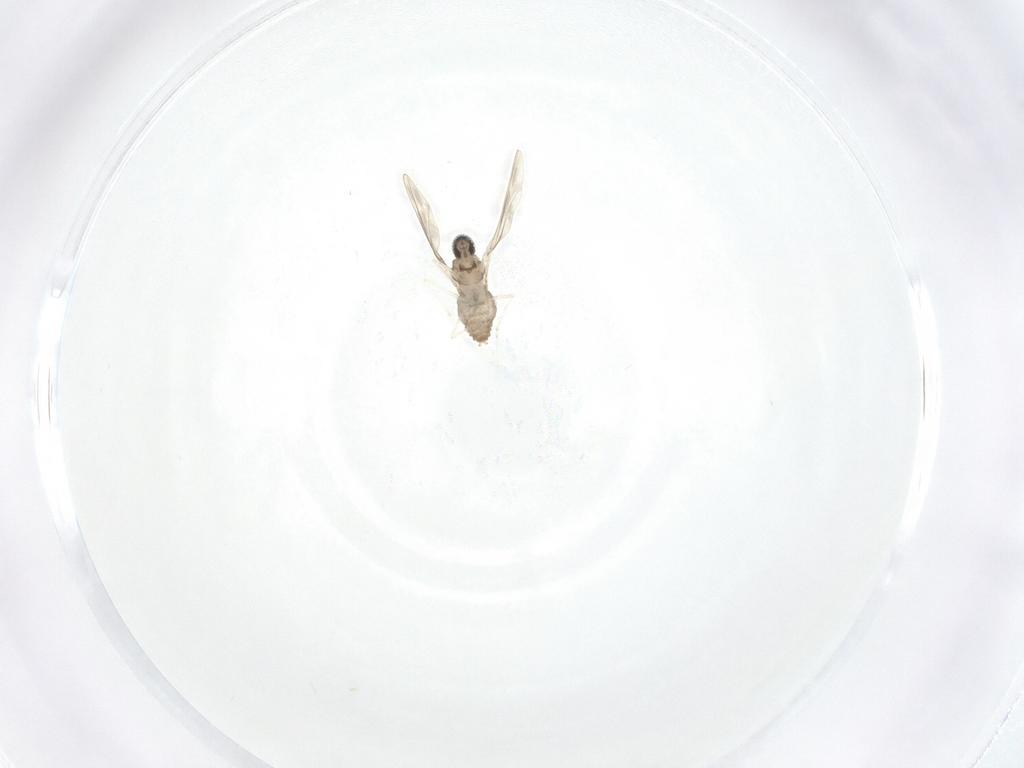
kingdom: Animalia
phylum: Arthropoda
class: Insecta
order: Diptera
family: Cecidomyiidae
